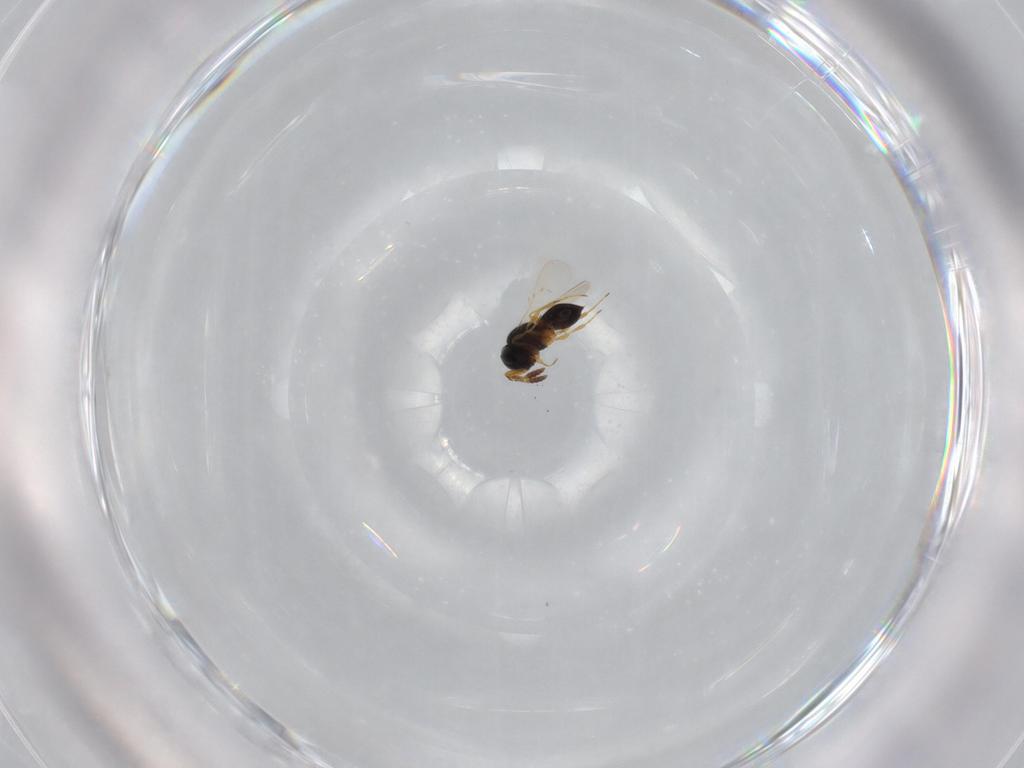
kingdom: Animalia
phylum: Arthropoda
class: Insecta
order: Hymenoptera
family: Scelionidae
